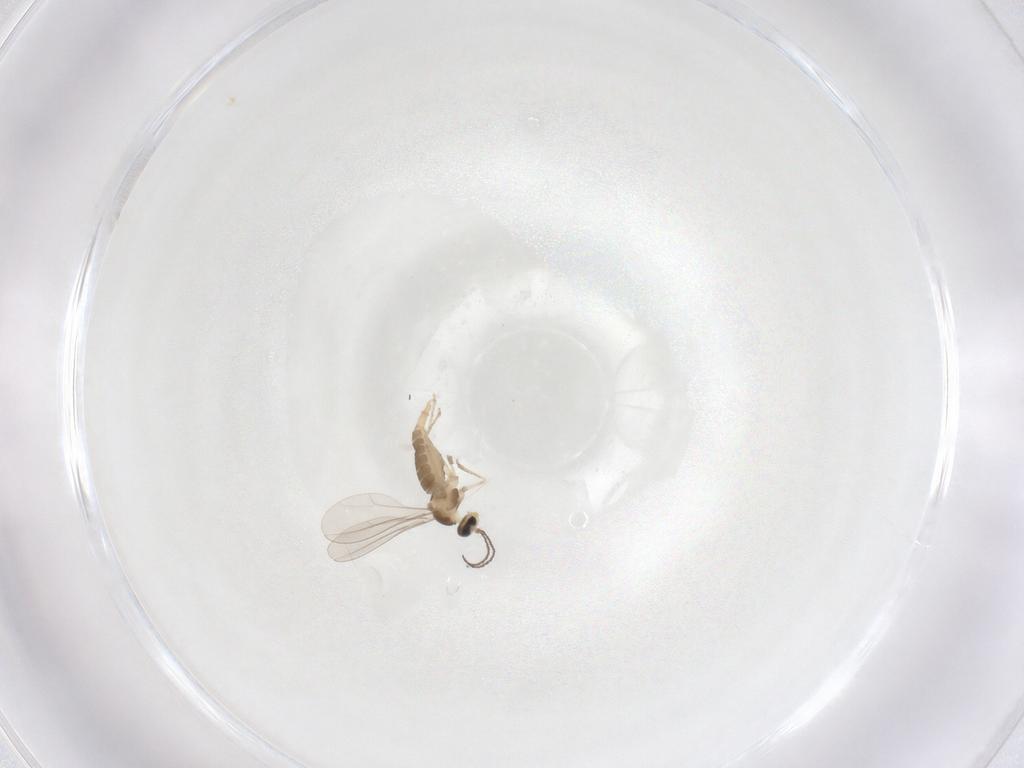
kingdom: Animalia
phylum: Arthropoda
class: Insecta
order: Diptera
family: Cecidomyiidae
